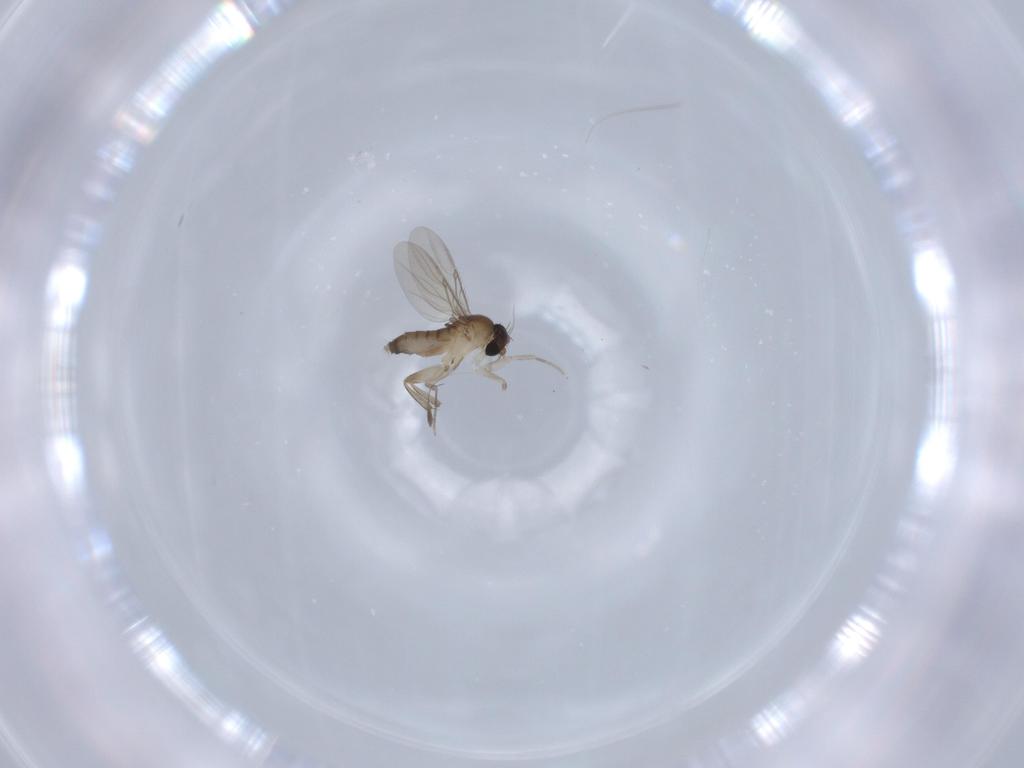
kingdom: Animalia
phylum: Arthropoda
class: Insecta
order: Diptera
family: Phoridae
